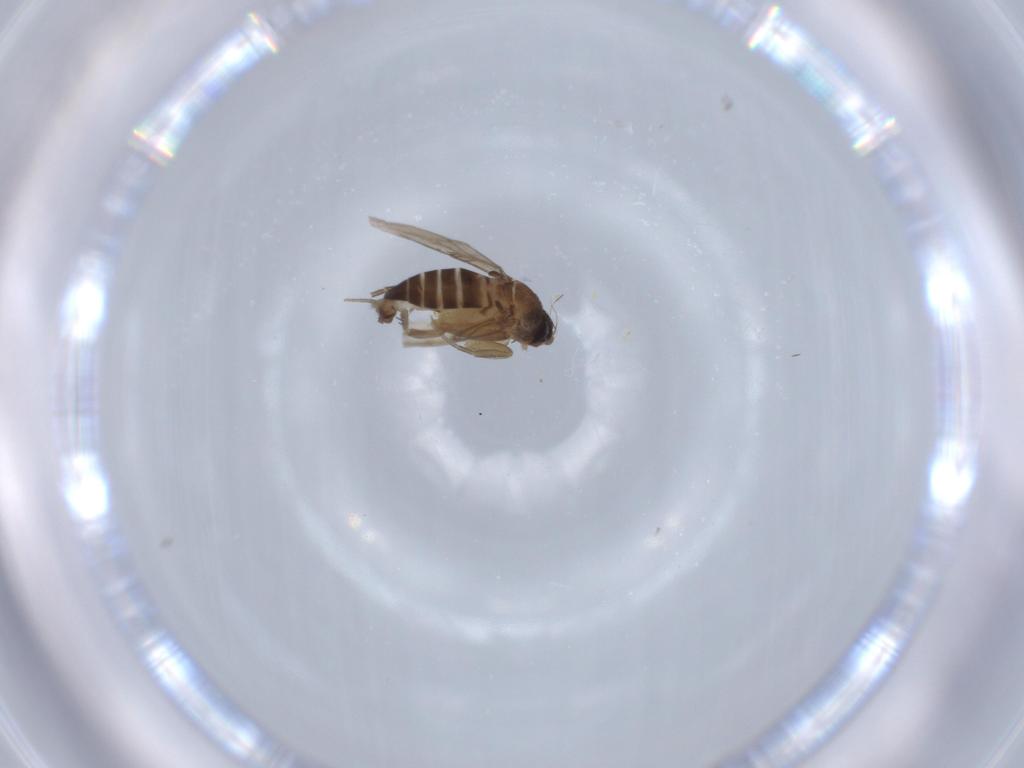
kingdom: Animalia
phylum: Arthropoda
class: Insecta
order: Diptera
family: Phoridae
